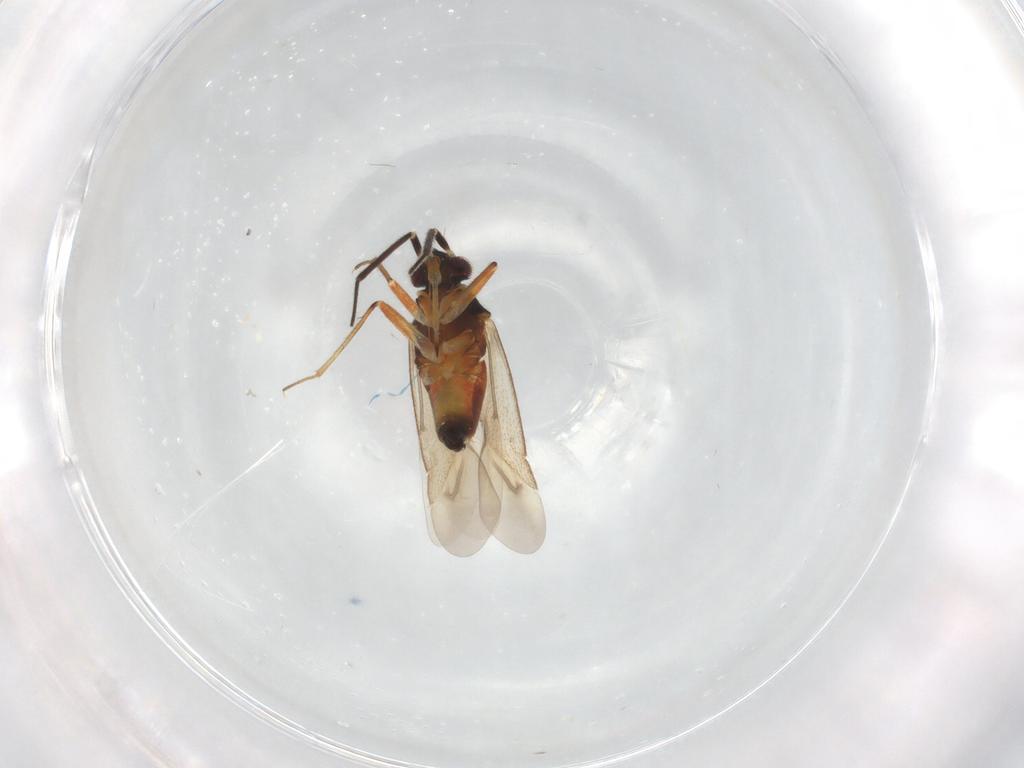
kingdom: Animalia
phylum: Arthropoda
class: Insecta
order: Hemiptera
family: Miridae
